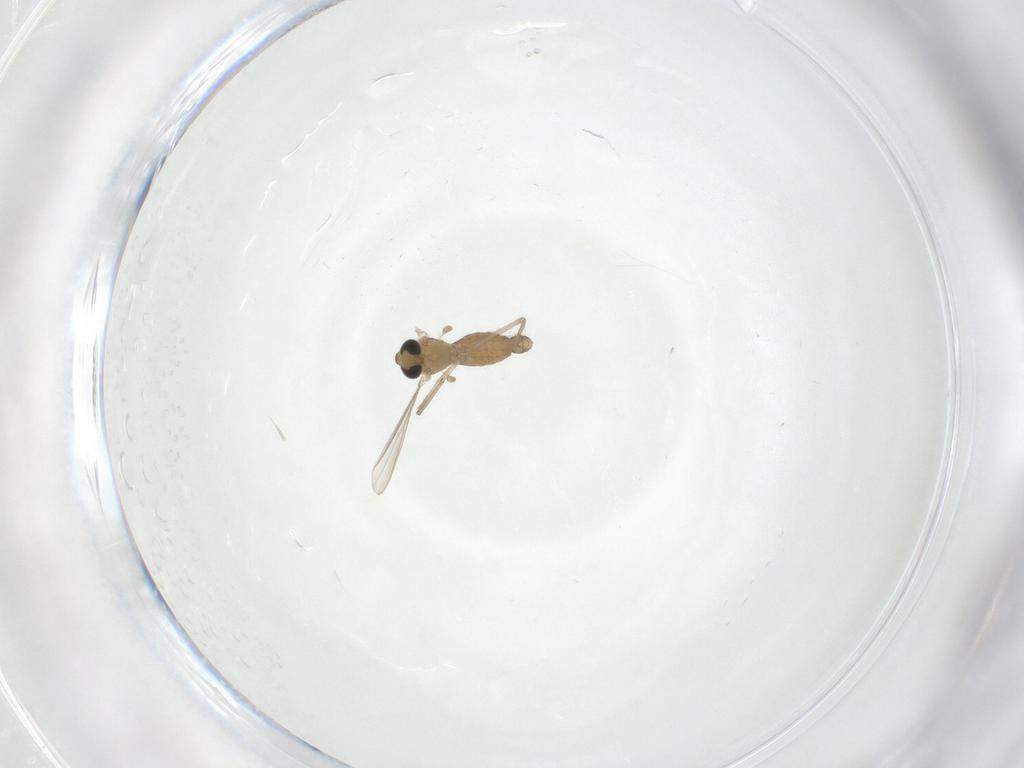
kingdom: Animalia
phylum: Arthropoda
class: Insecta
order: Diptera
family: Chironomidae
